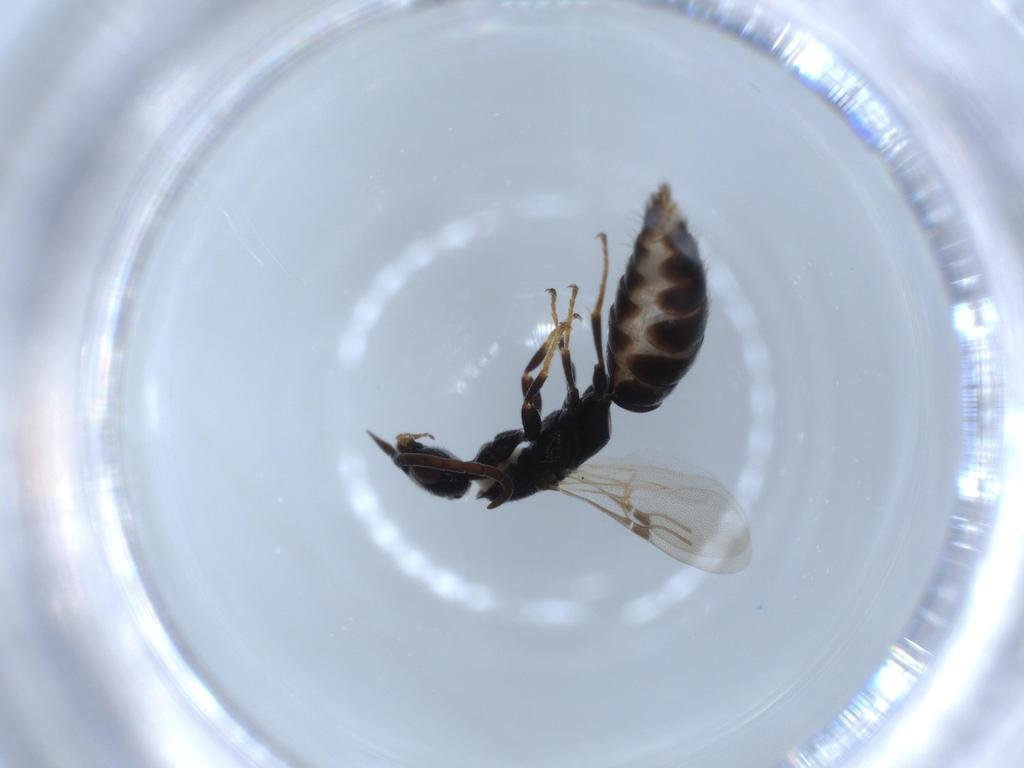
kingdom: Animalia
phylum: Arthropoda
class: Insecta
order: Hymenoptera
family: Bethylidae
